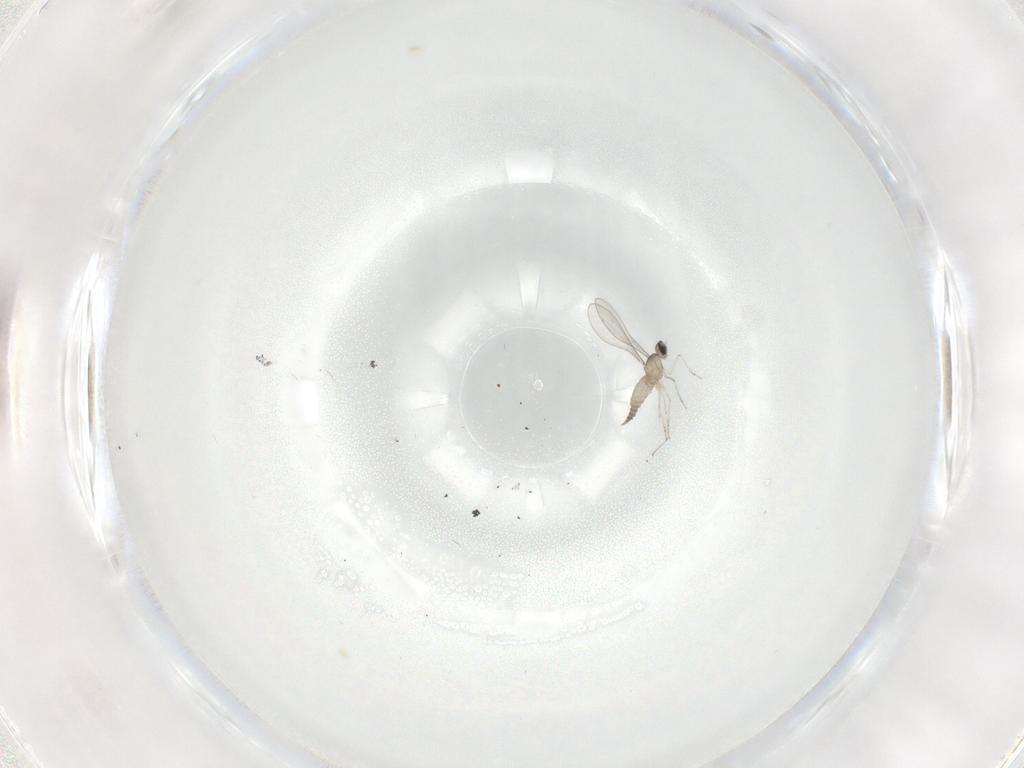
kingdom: Animalia
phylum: Arthropoda
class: Insecta
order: Diptera
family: Cecidomyiidae
